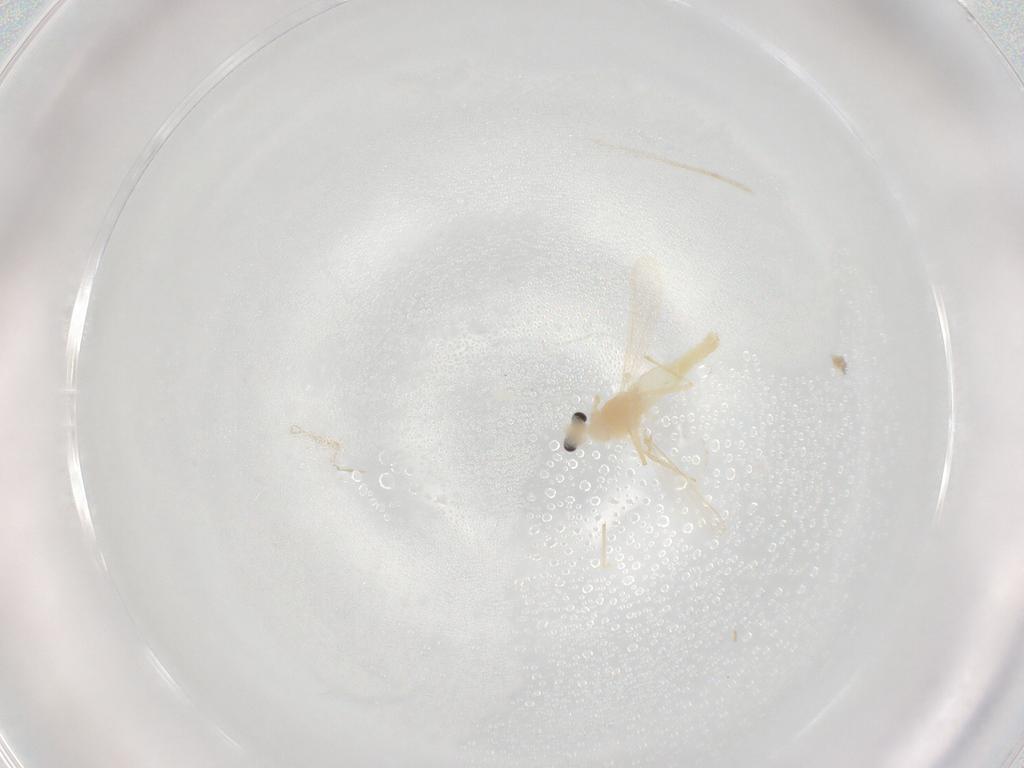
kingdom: Animalia
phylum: Arthropoda
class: Insecta
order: Diptera
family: Chironomidae
